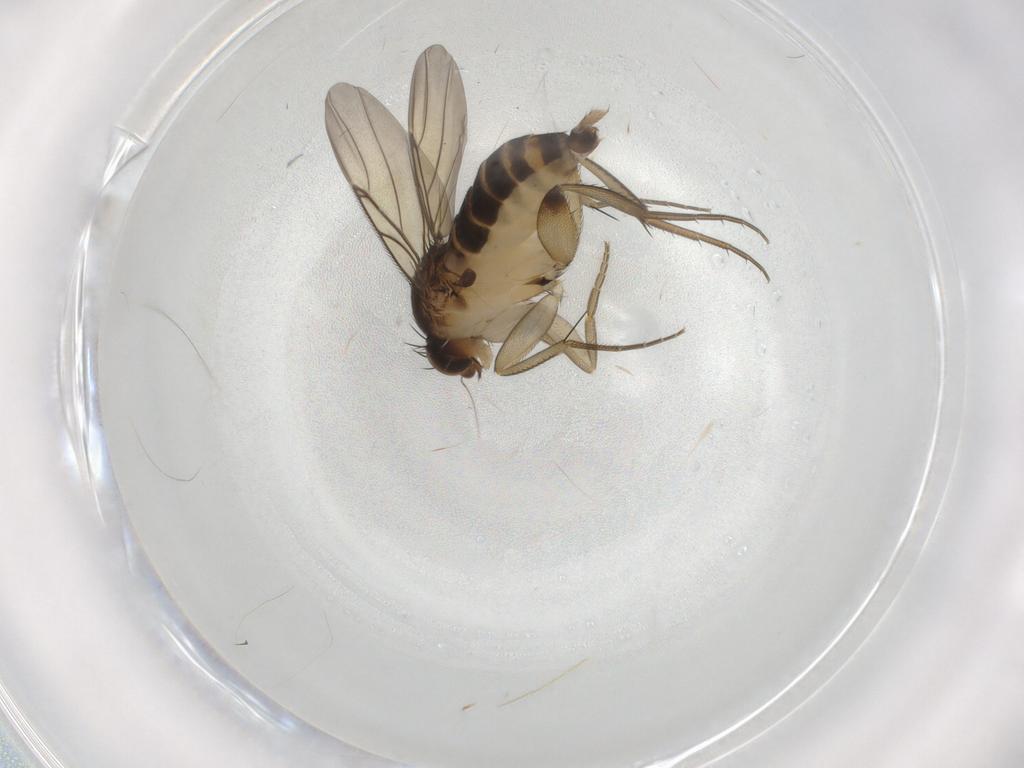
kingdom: Animalia
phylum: Arthropoda
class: Insecta
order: Diptera
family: Phoridae
